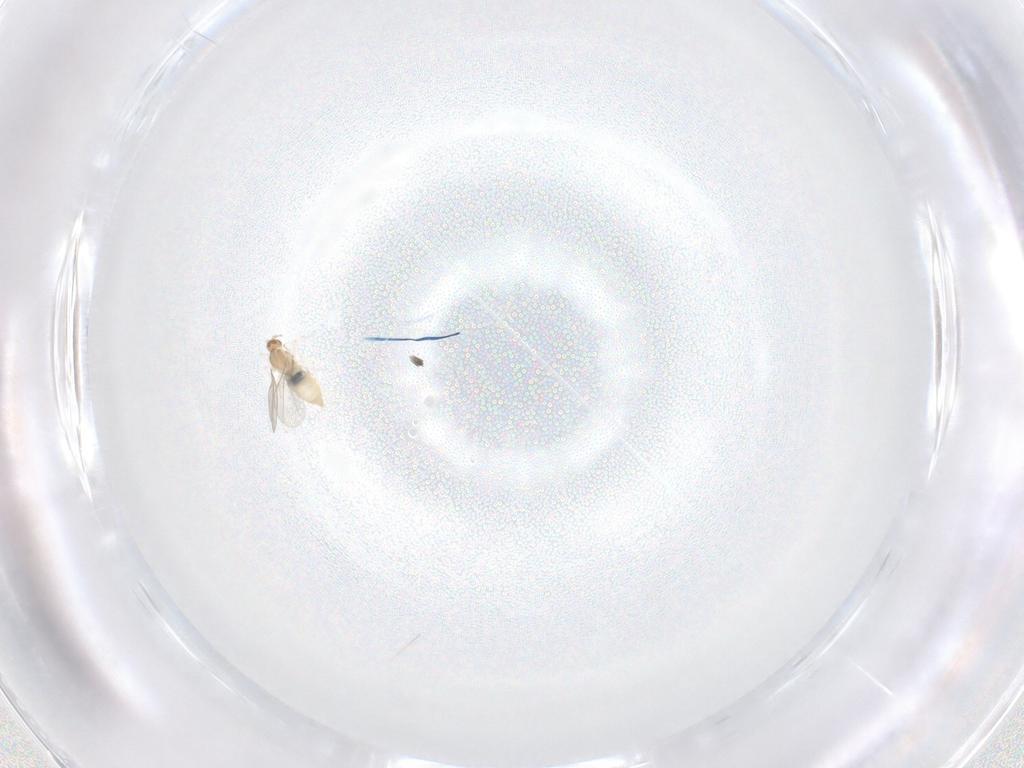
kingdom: Animalia
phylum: Arthropoda
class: Insecta
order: Diptera
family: Cecidomyiidae
